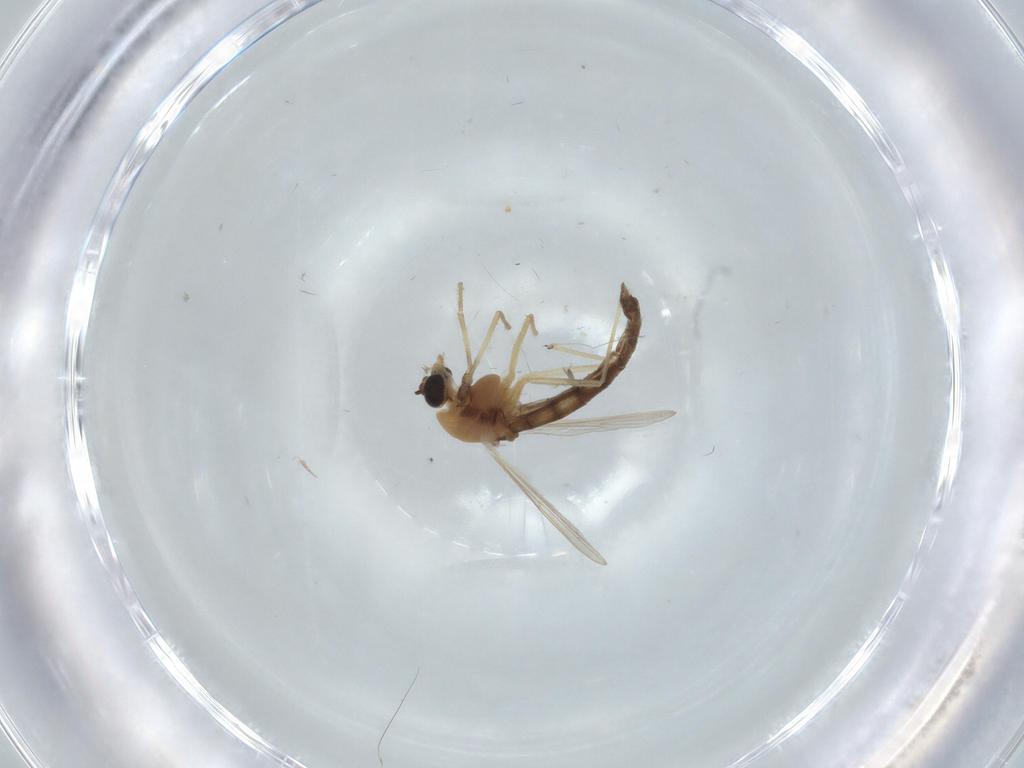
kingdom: Animalia
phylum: Arthropoda
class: Insecta
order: Diptera
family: Chironomidae
